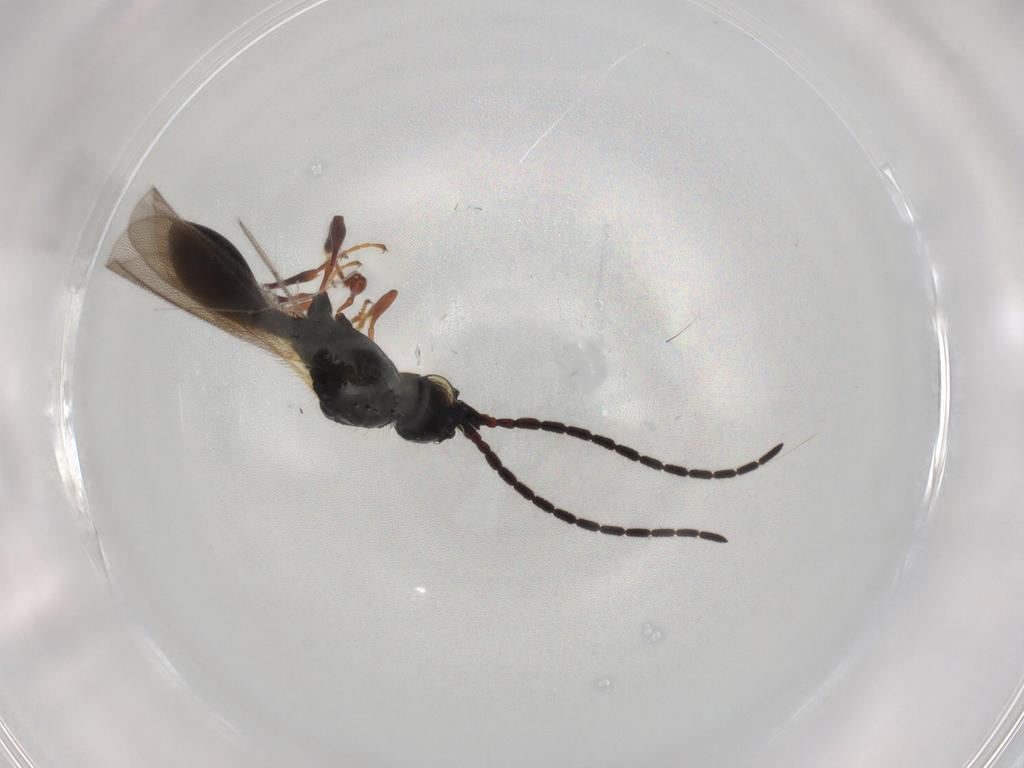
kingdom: Animalia
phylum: Arthropoda
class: Insecta
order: Hymenoptera
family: Diapriidae
